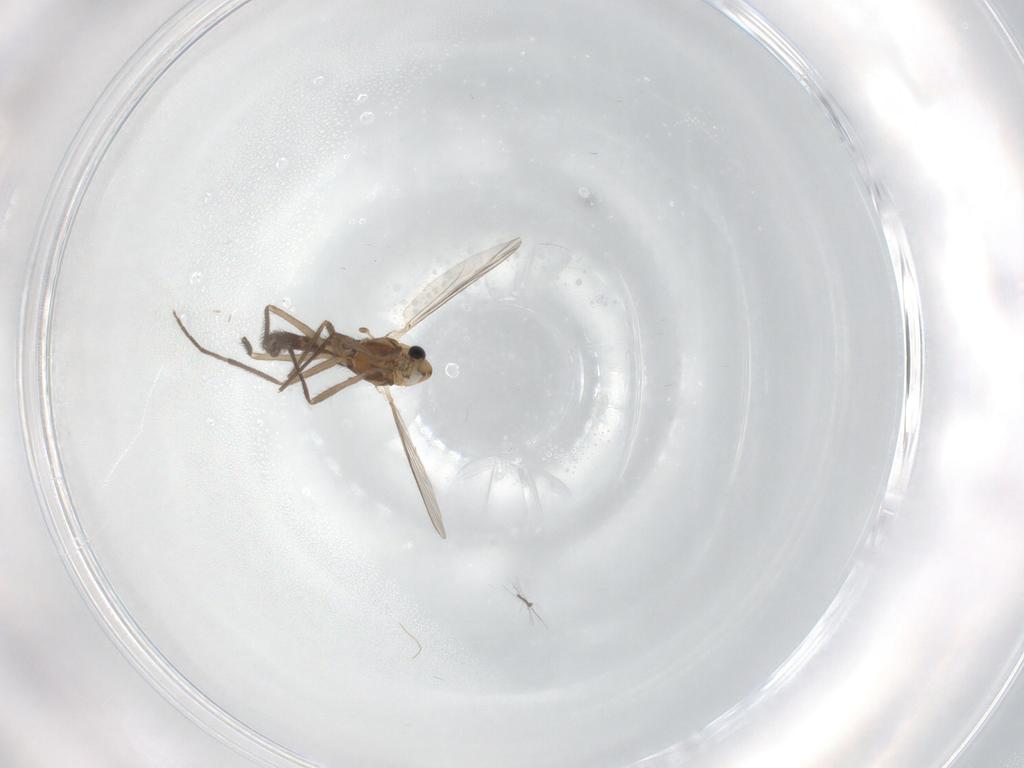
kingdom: Animalia
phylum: Arthropoda
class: Insecta
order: Diptera
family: Chironomidae
